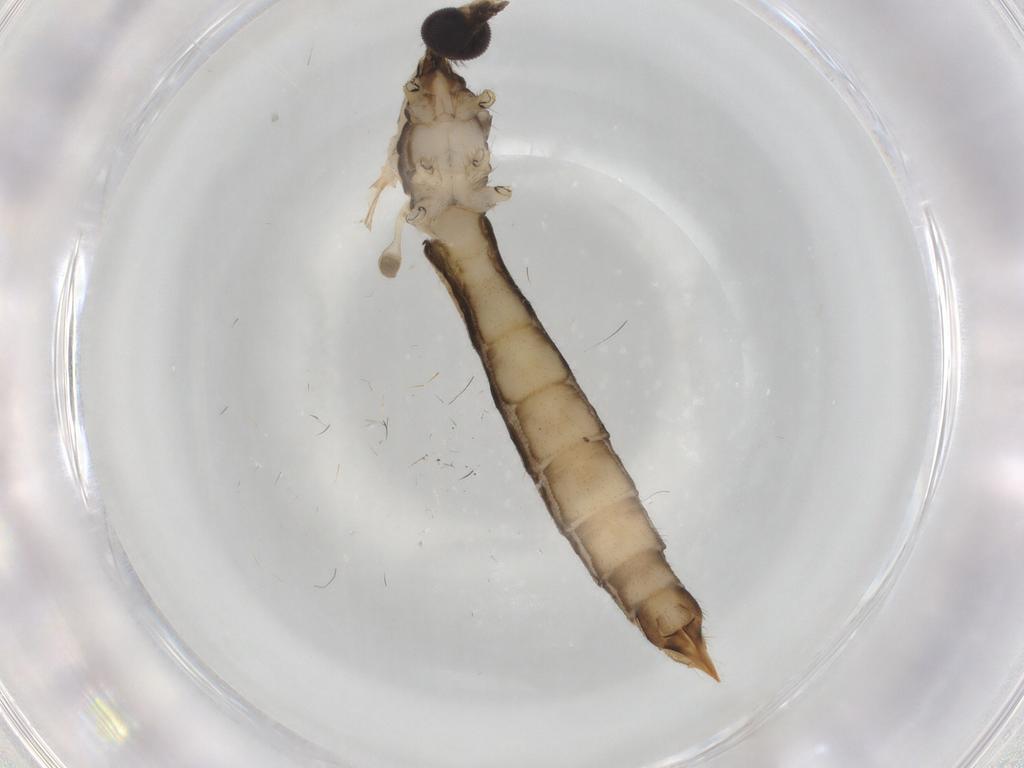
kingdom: Animalia
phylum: Arthropoda
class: Insecta
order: Diptera
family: Limoniidae
